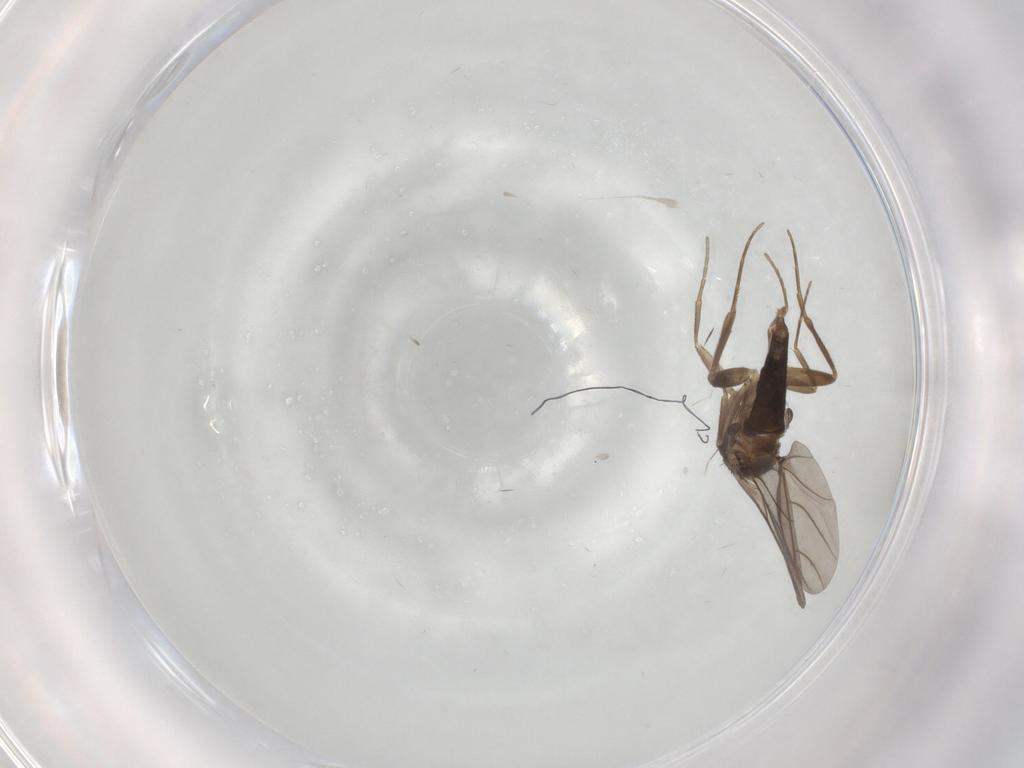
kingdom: Animalia
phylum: Arthropoda
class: Insecta
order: Diptera
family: Phoridae
